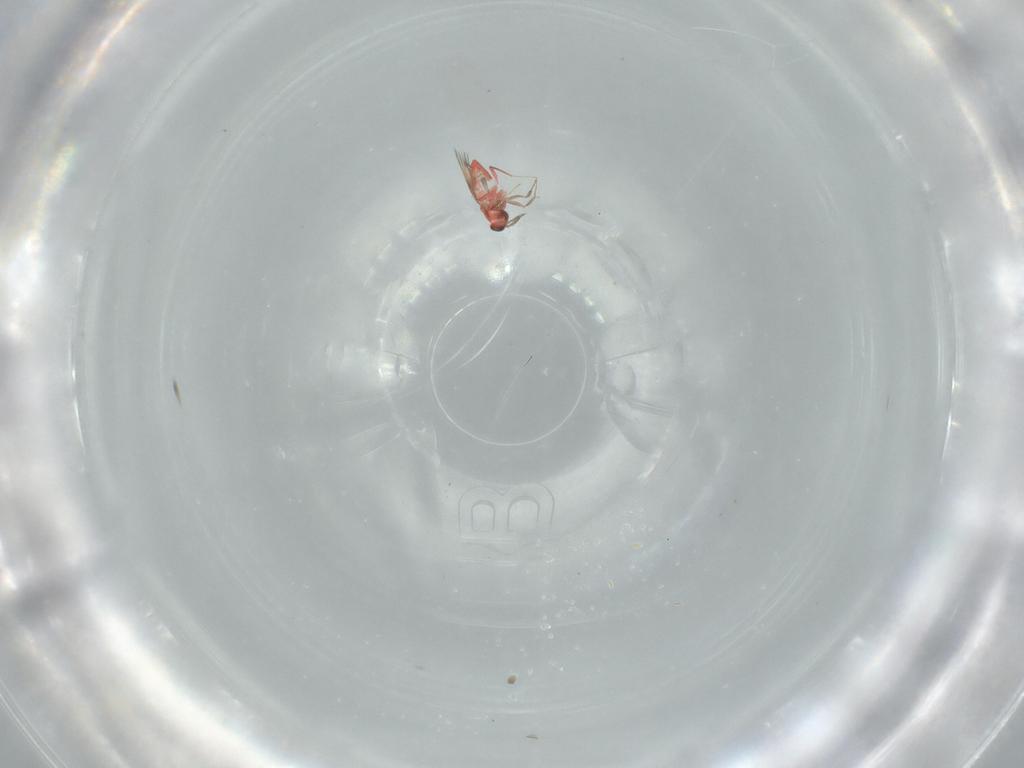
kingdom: Animalia
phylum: Arthropoda
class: Insecta
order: Hymenoptera
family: Trichogrammatidae
